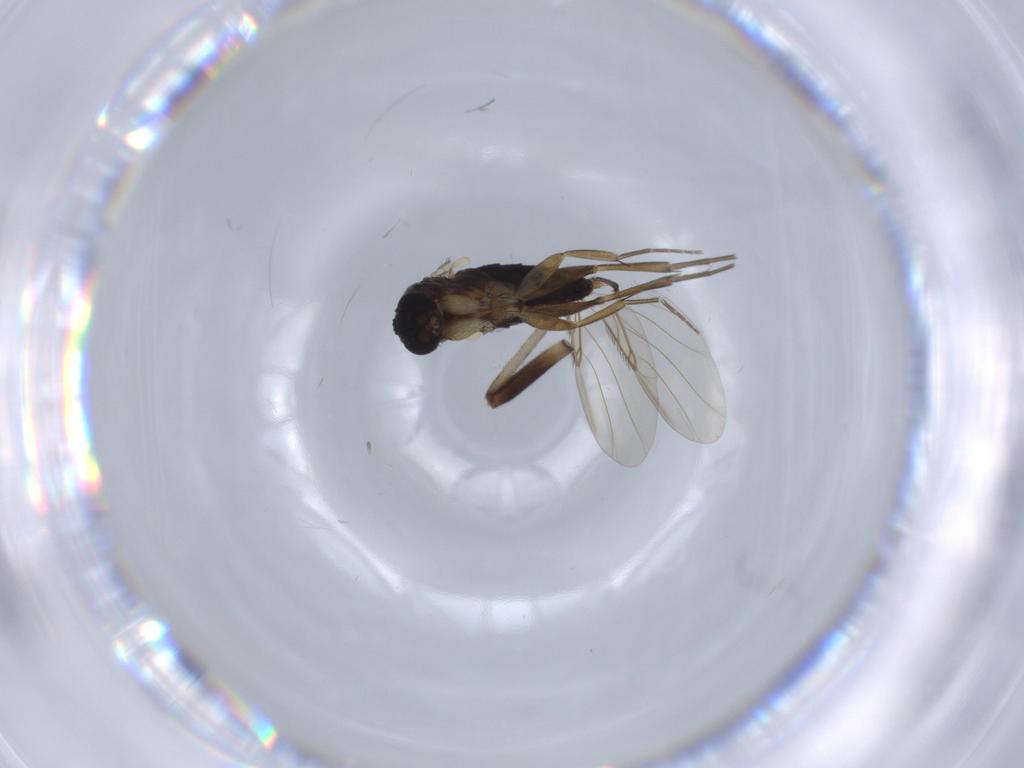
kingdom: Animalia
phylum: Arthropoda
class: Insecta
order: Diptera
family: Phoridae
